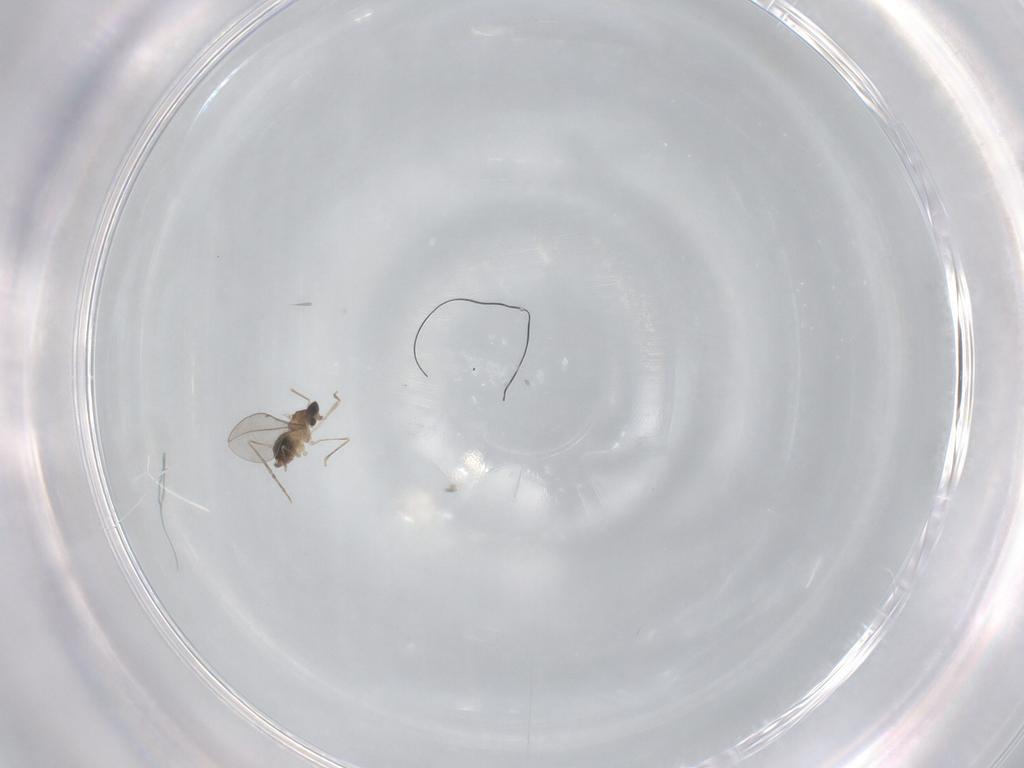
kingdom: Animalia
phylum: Arthropoda
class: Insecta
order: Diptera
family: Cecidomyiidae
